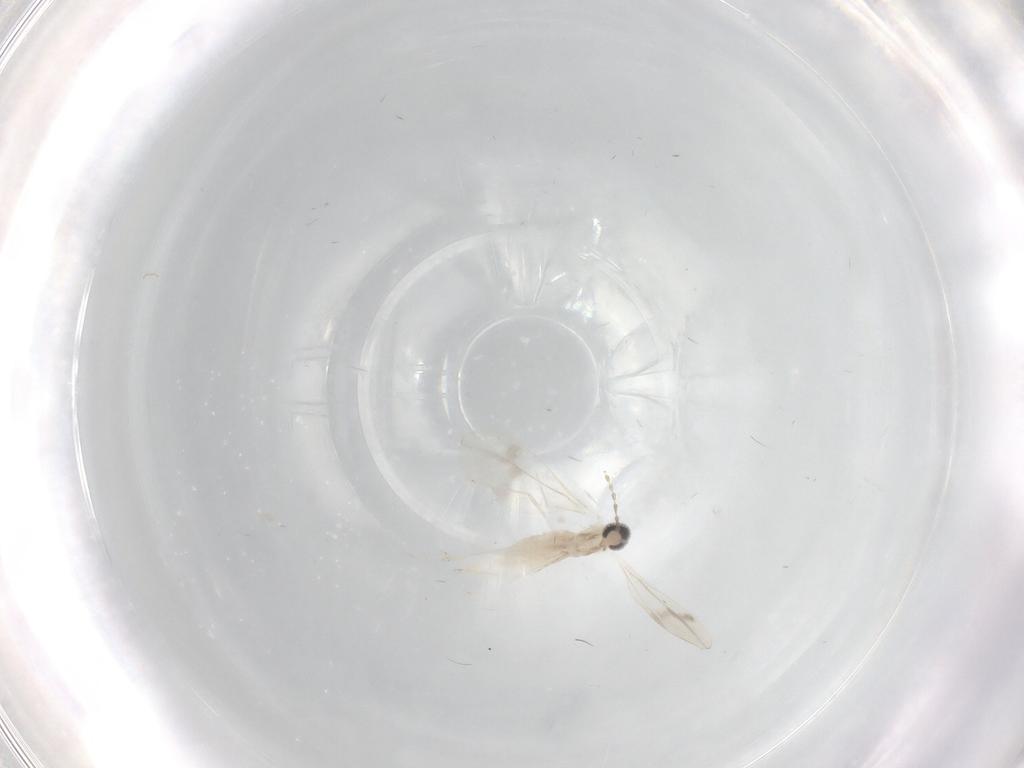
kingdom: Animalia
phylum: Arthropoda
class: Insecta
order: Diptera
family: Cecidomyiidae
